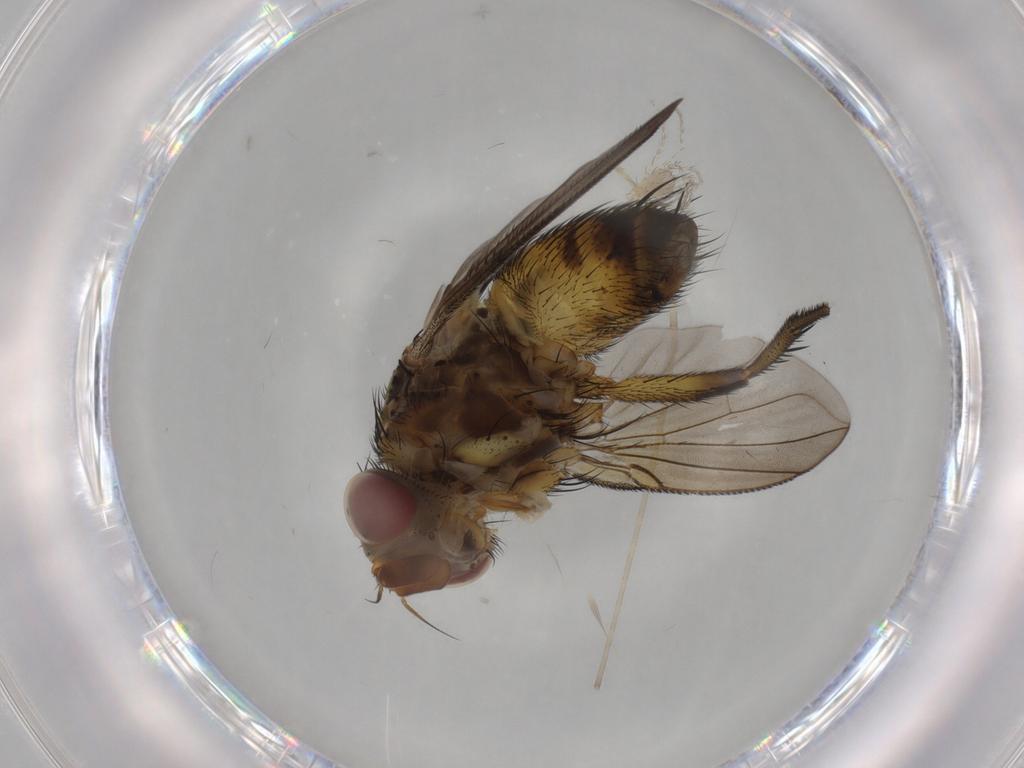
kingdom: Animalia
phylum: Arthropoda
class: Insecta
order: Diptera
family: Tachinidae
